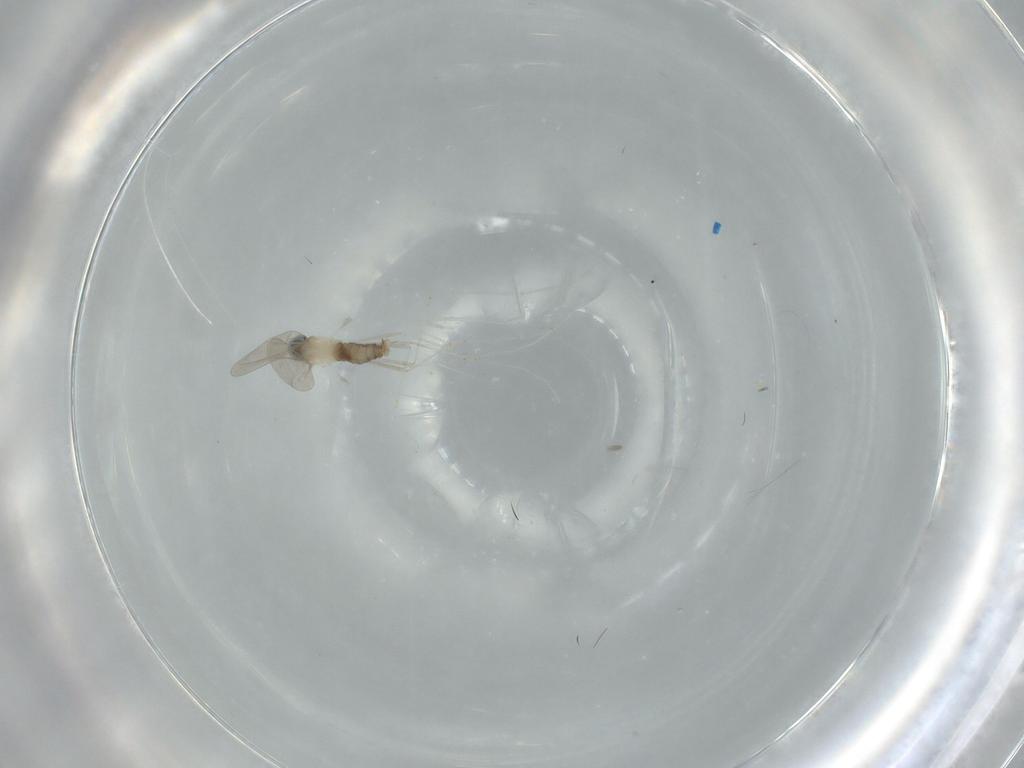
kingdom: Animalia
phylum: Arthropoda
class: Insecta
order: Diptera
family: Cecidomyiidae
